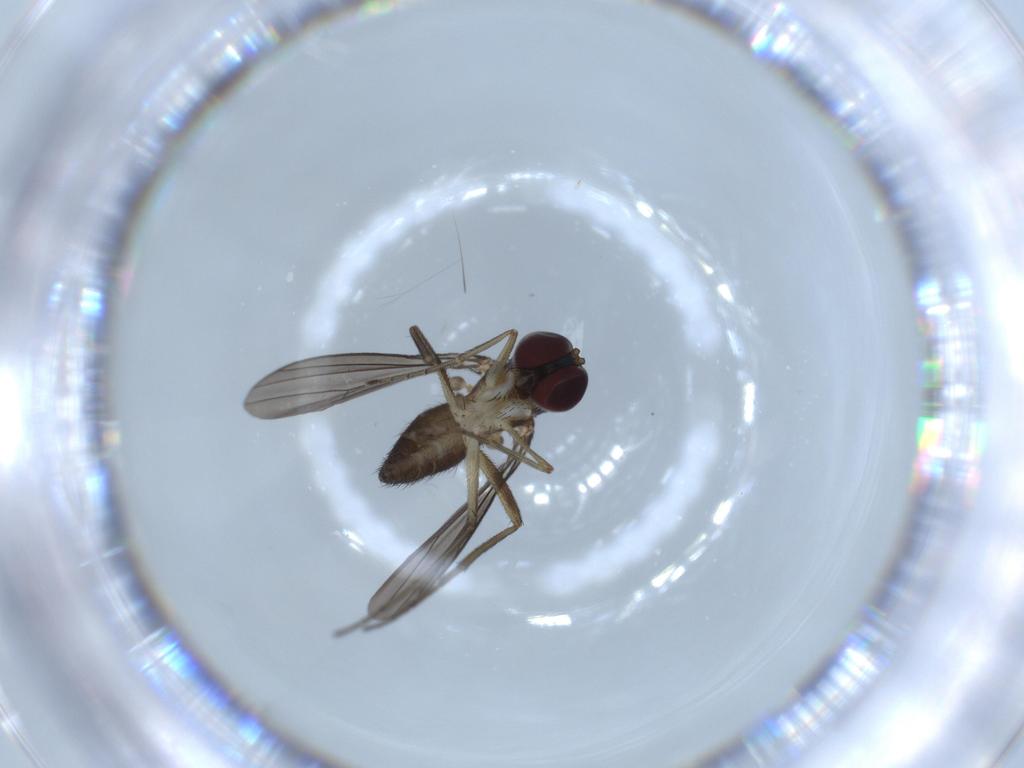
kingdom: Animalia
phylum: Arthropoda
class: Insecta
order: Diptera
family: Dolichopodidae
